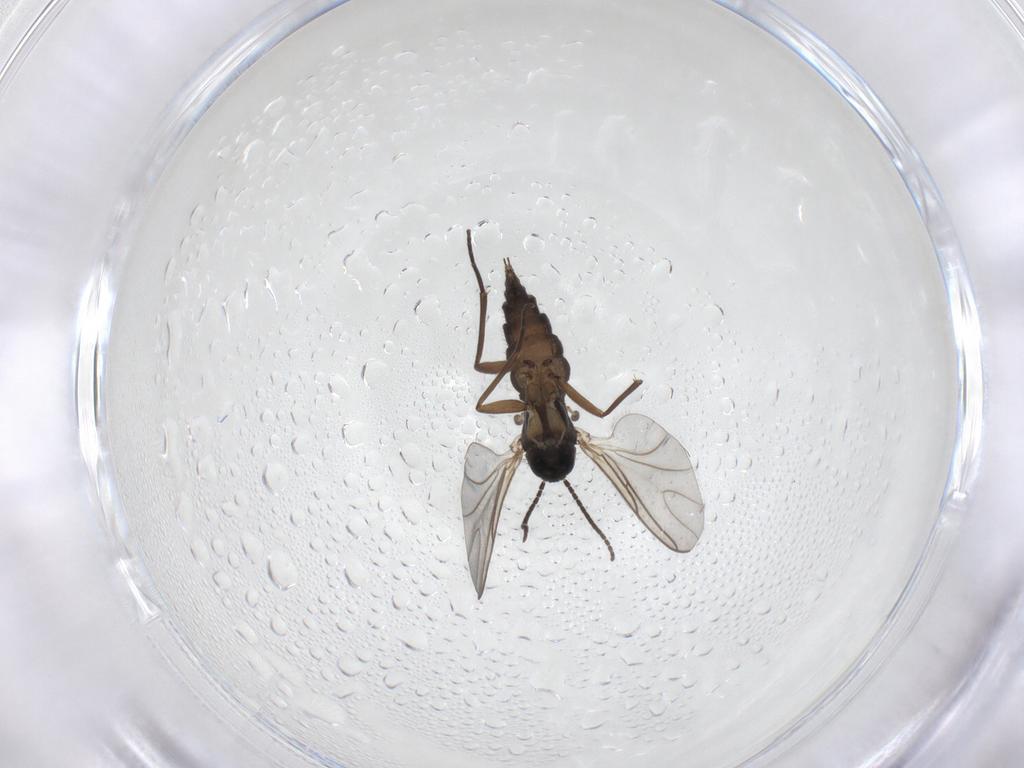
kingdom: Animalia
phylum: Arthropoda
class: Insecta
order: Diptera
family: Sciaridae
